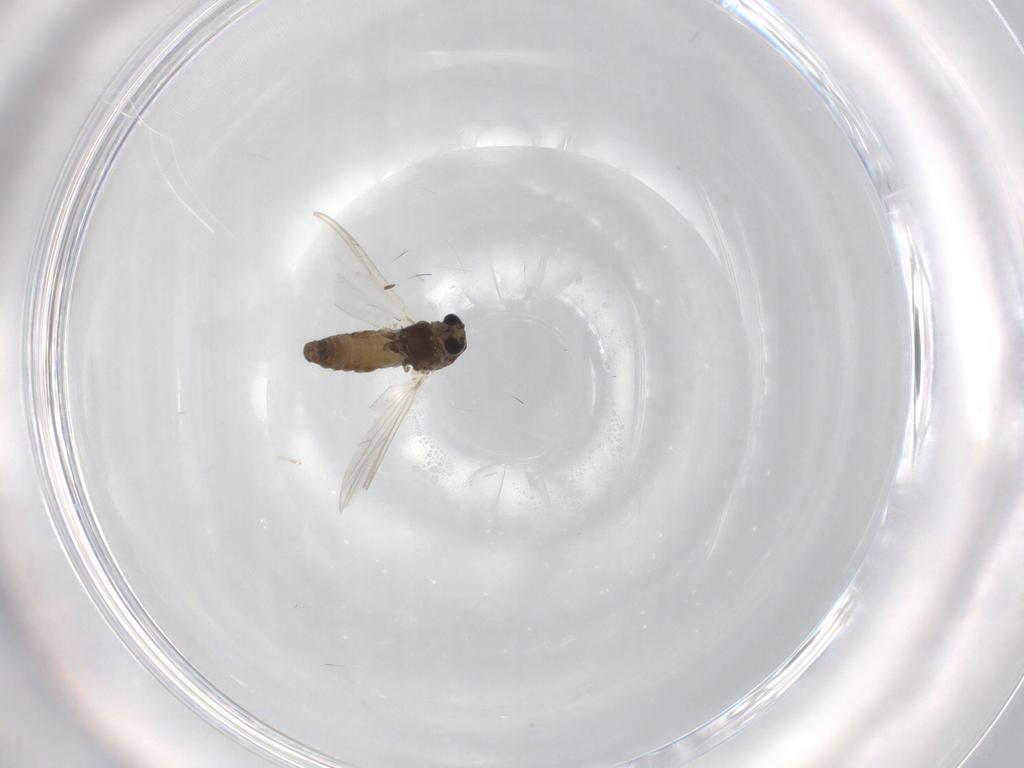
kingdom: Animalia
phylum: Arthropoda
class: Insecta
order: Diptera
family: Chironomidae
